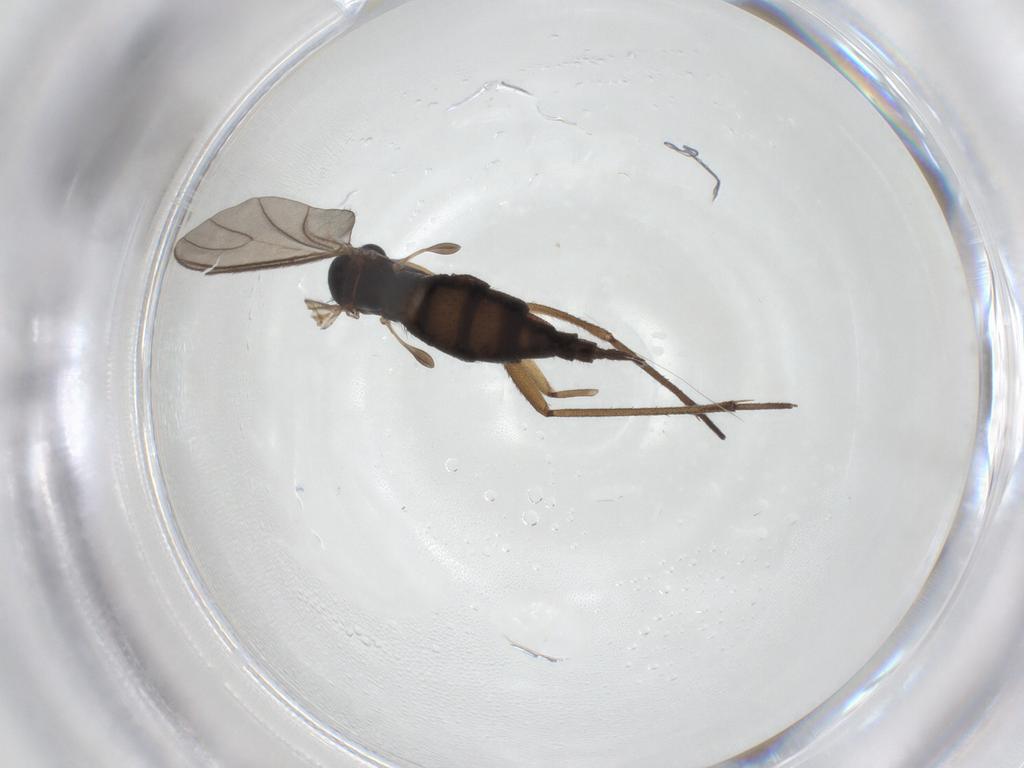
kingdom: Animalia
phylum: Arthropoda
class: Insecta
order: Diptera
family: Sciaridae
